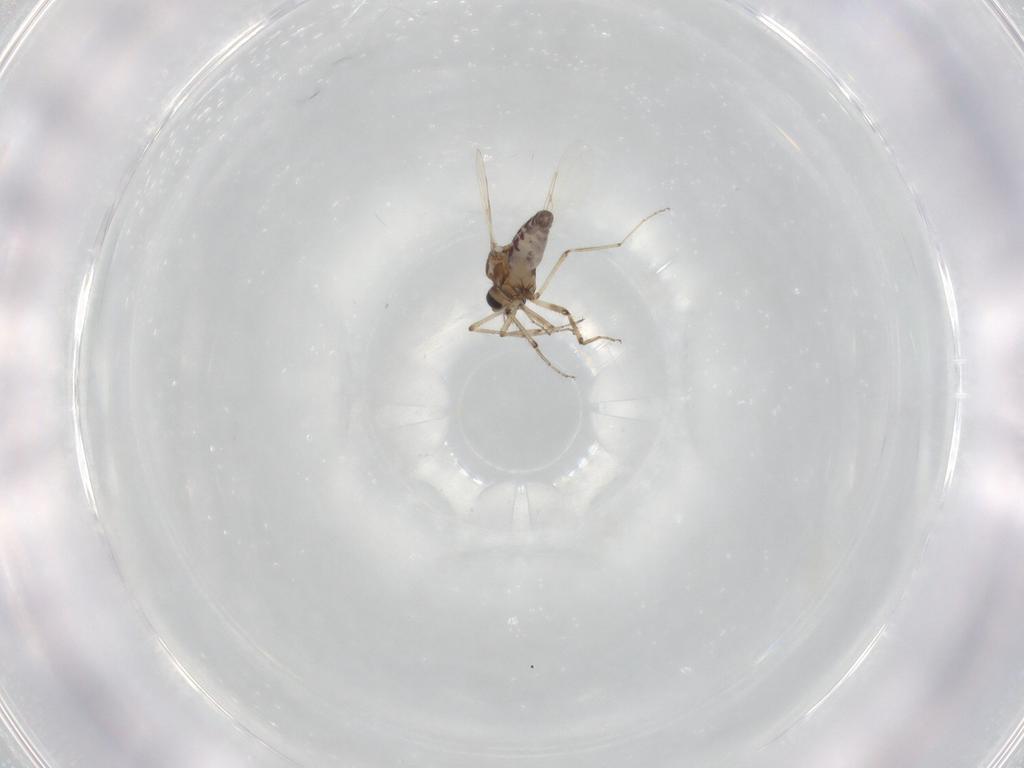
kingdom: Animalia
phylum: Arthropoda
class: Insecta
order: Diptera
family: Ceratopogonidae
